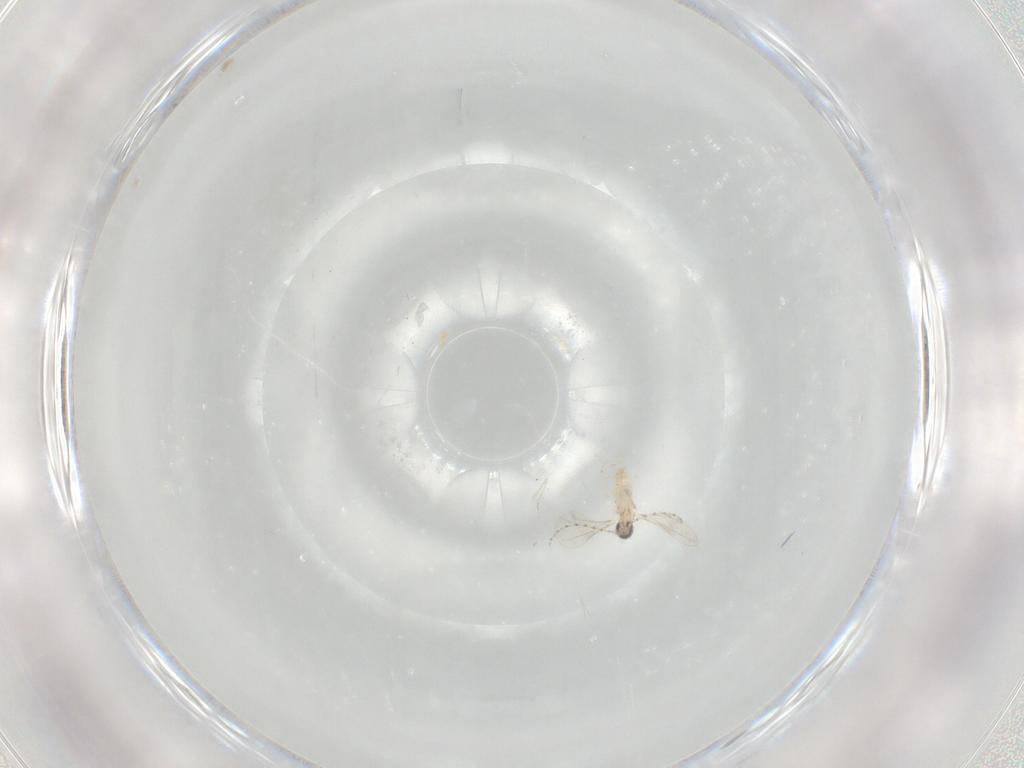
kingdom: Animalia
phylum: Arthropoda
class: Insecta
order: Diptera
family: Cecidomyiidae
